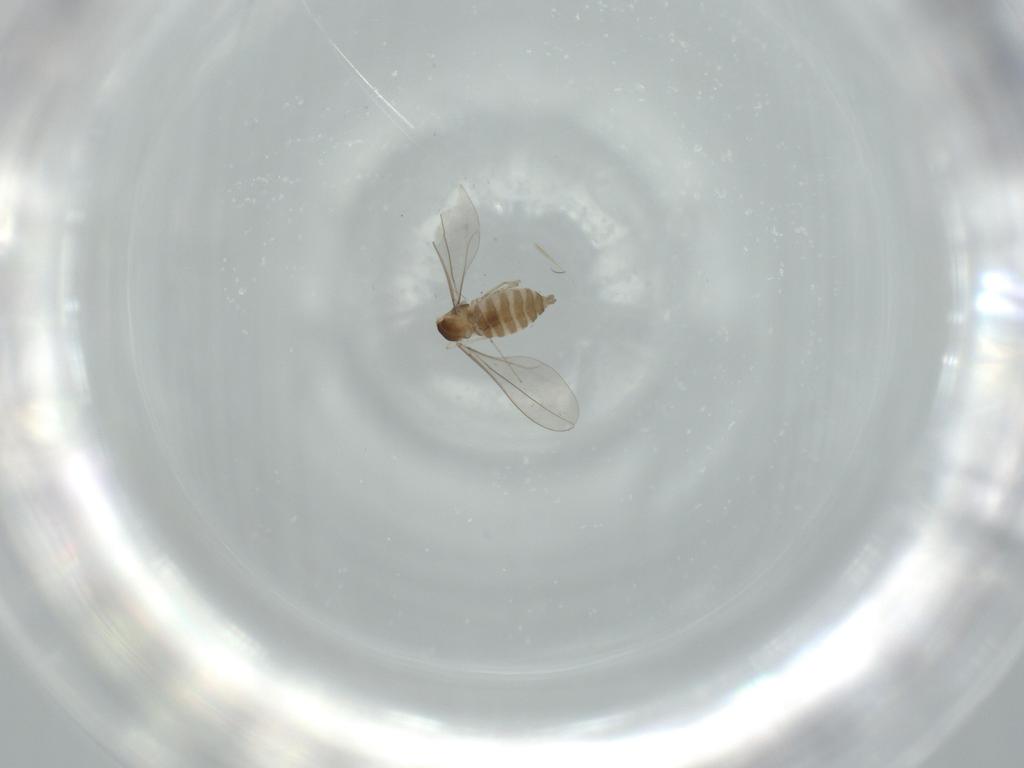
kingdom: Animalia
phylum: Arthropoda
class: Insecta
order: Diptera
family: Cecidomyiidae
